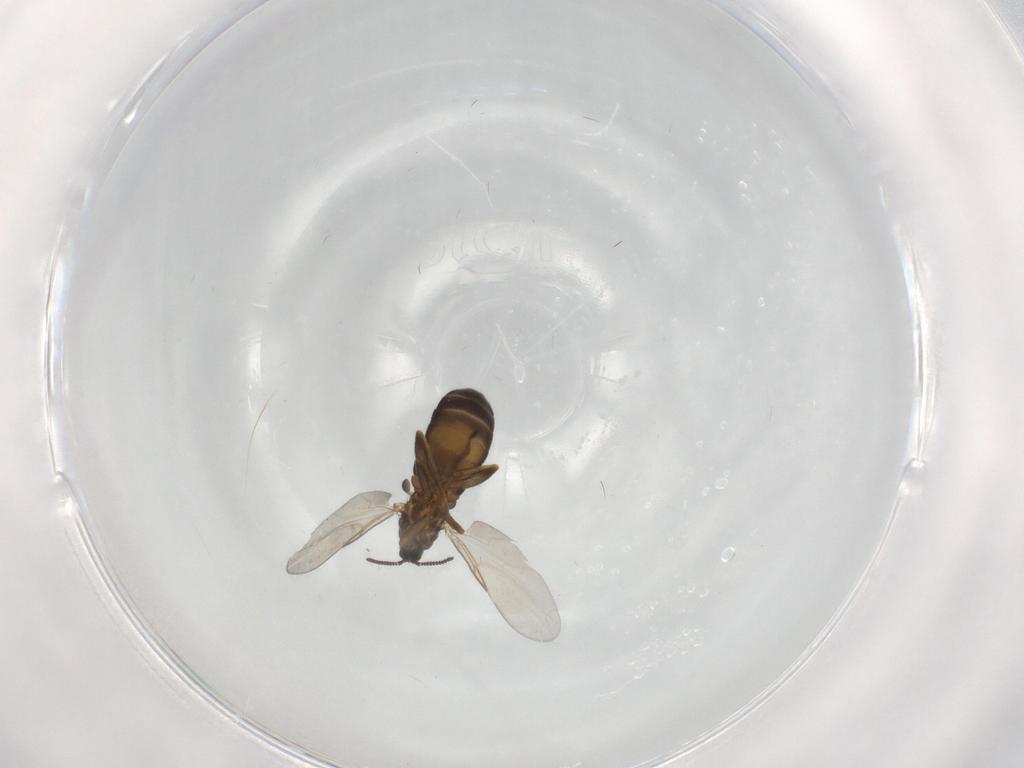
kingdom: Animalia
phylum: Arthropoda
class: Insecta
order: Diptera
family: Scatopsidae
